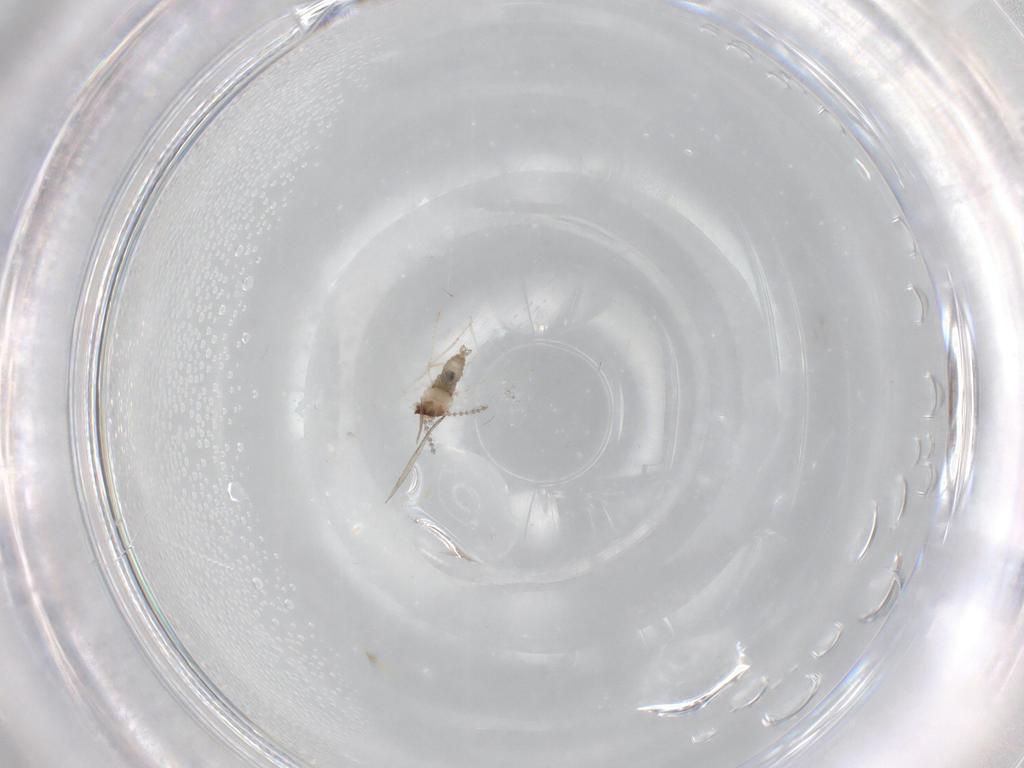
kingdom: Animalia
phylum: Arthropoda
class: Insecta
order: Diptera
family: Cecidomyiidae
